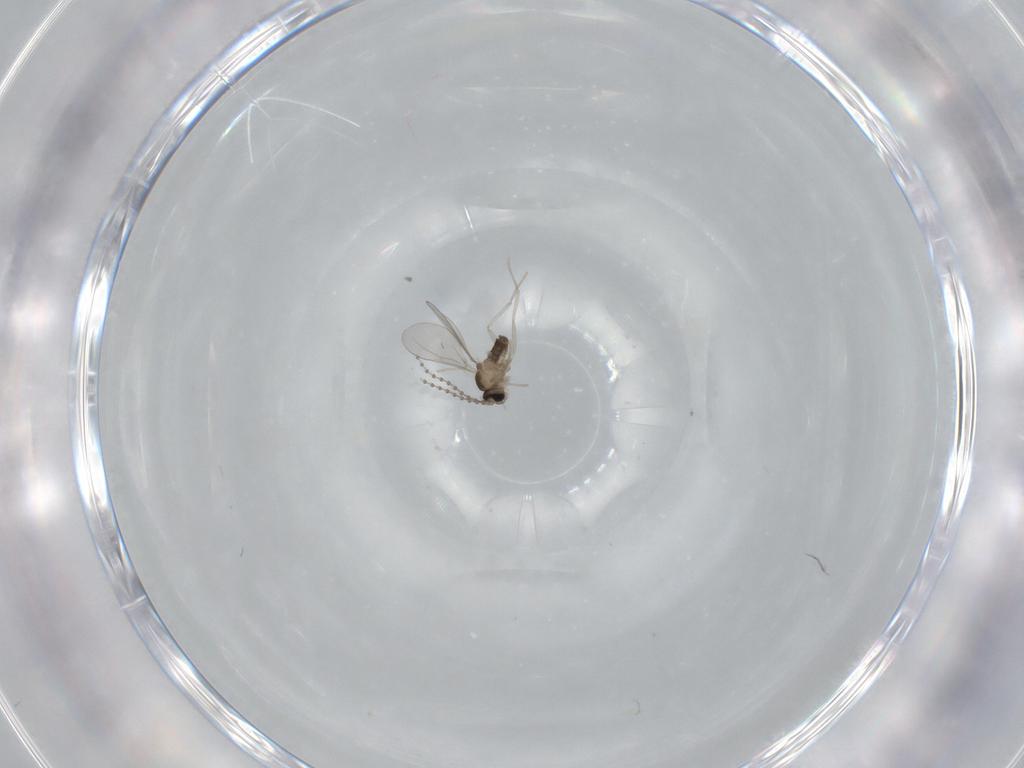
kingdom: Animalia
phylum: Arthropoda
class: Insecta
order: Diptera
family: Cecidomyiidae
